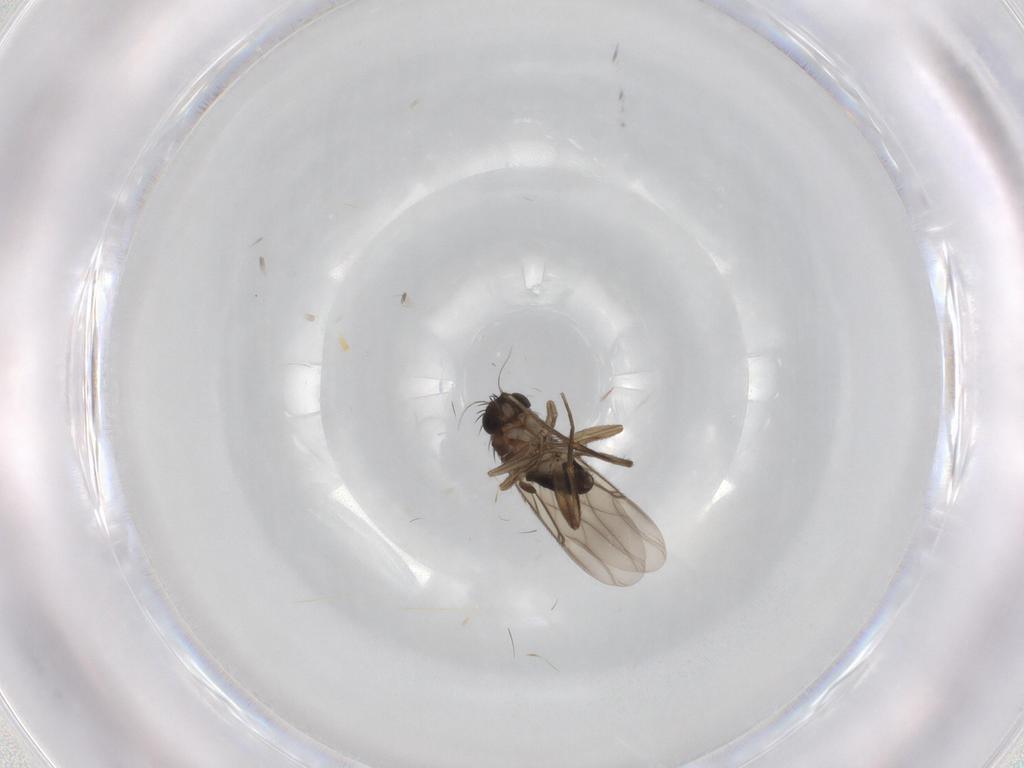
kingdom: Animalia
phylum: Arthropoda
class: Insecta
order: Diptera
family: Phoridae
